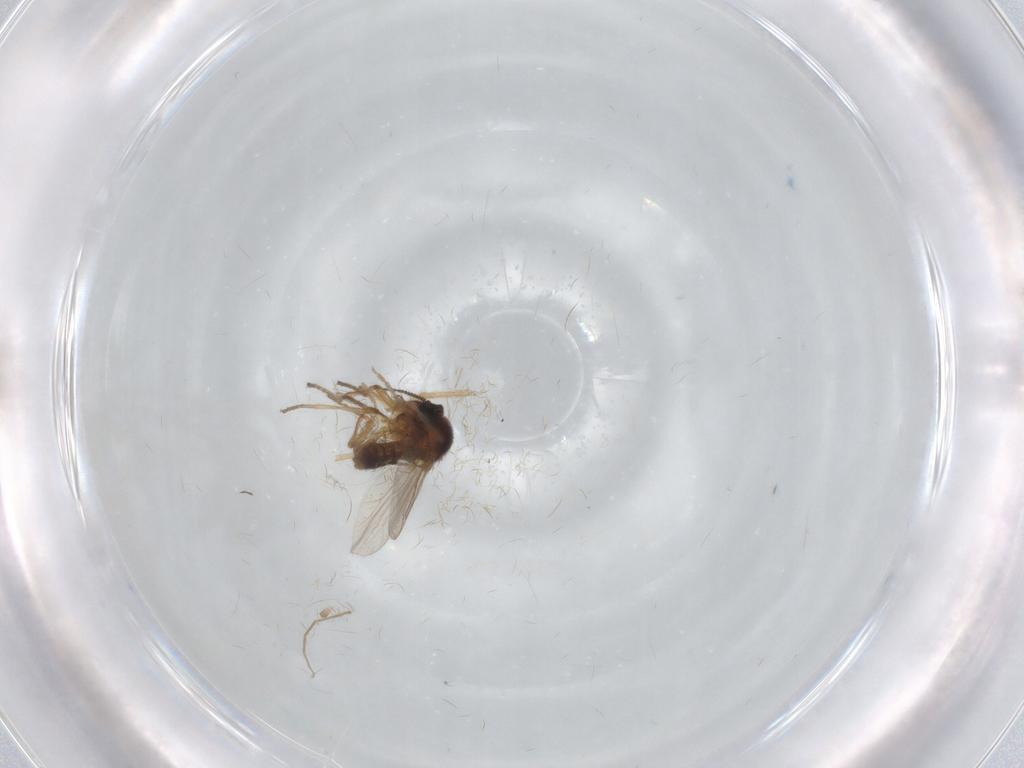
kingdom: Animalia
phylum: Arthropoda
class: Insecta
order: Diptera
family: Ceratopogonidae
